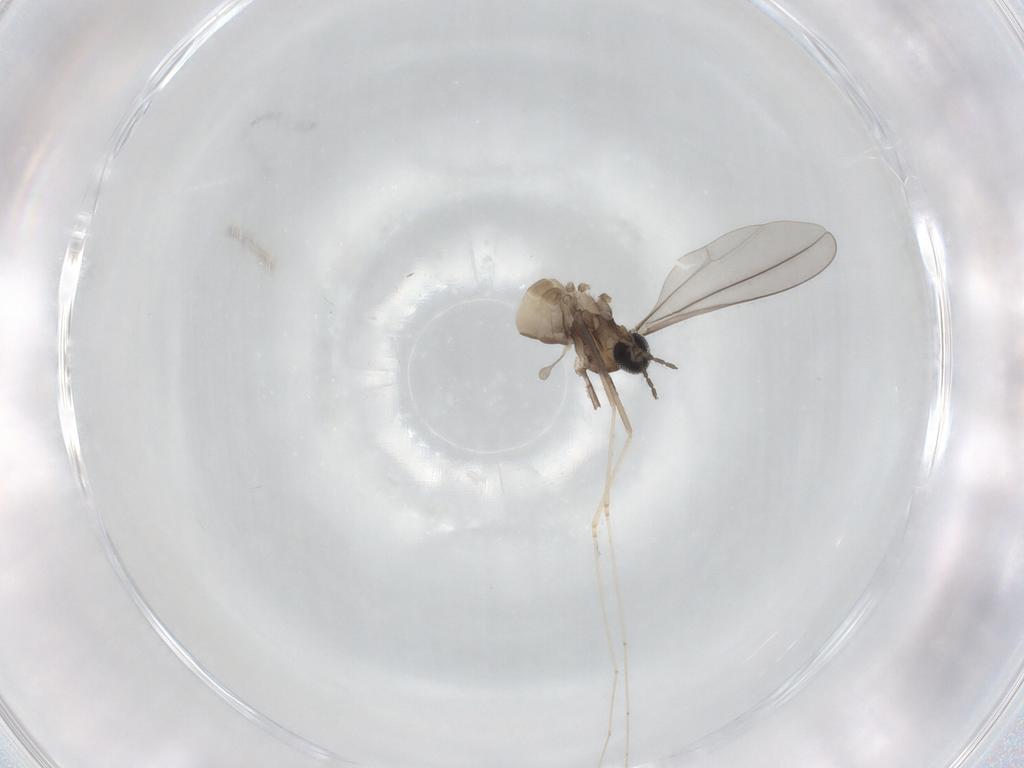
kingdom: Animalia
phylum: Arthropoda
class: Insecta
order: Diptera
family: Cecidomyiidae
